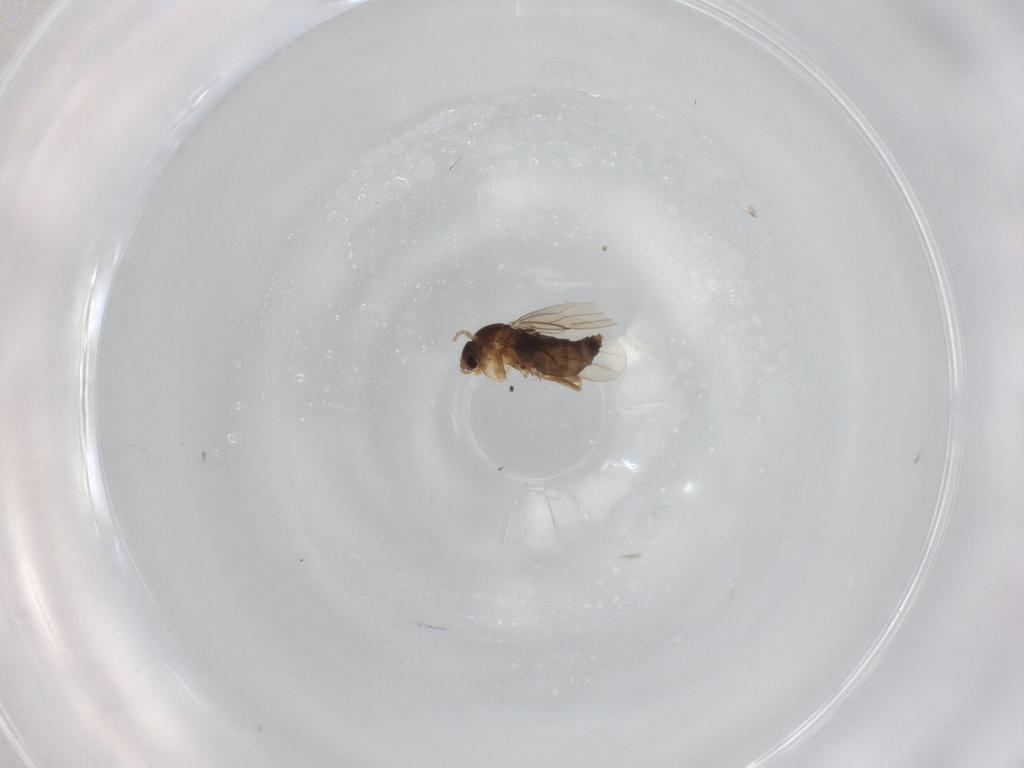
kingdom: Animalia
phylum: Arthropoda
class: Insecta
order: Diptera
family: Phoridae
